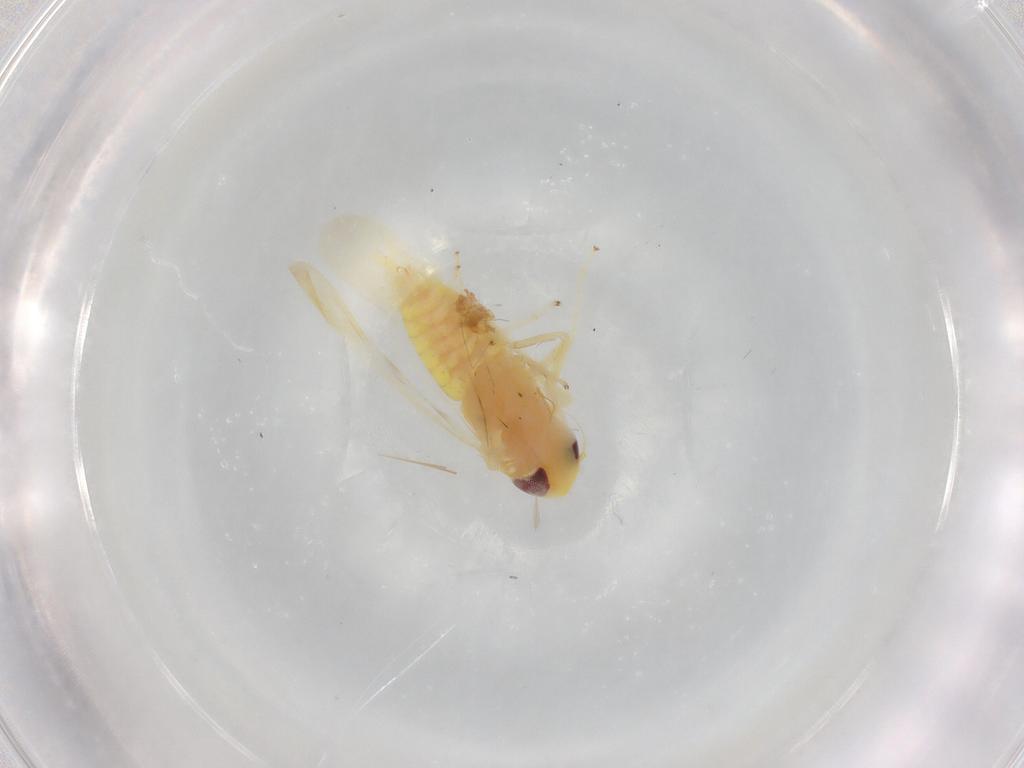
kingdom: Animalia
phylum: Arthropoda
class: Insecta
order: Hemiptera
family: Cicadellidae
